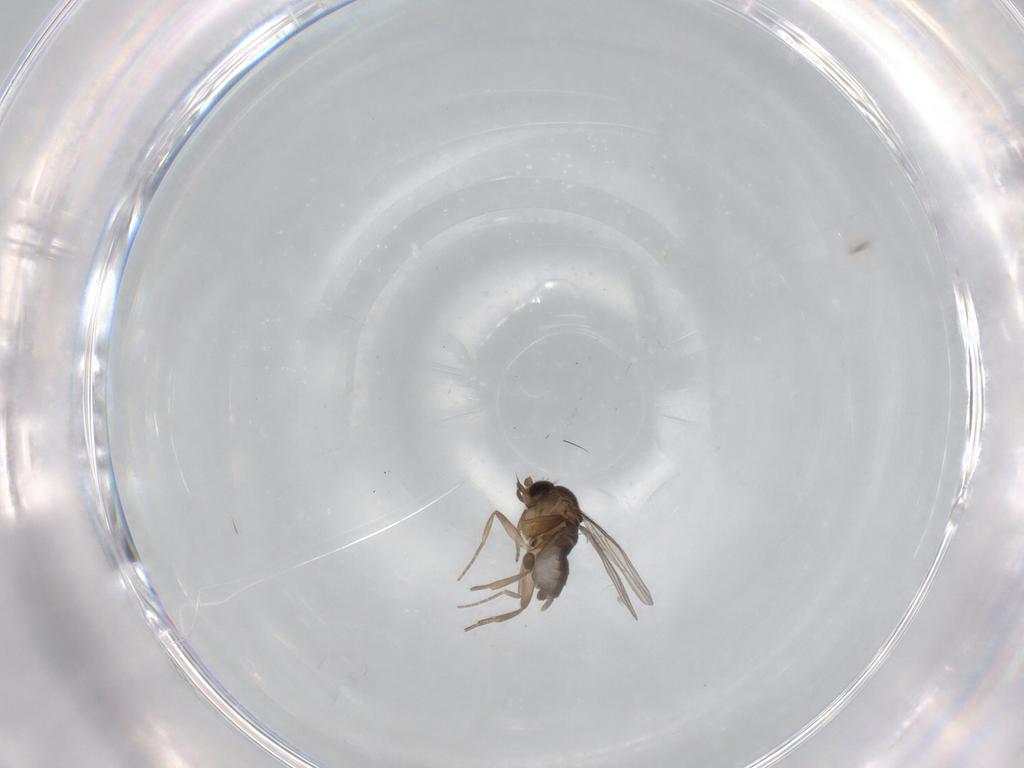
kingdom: Animalia
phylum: Arthropoda
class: Insecta
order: Diptera
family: Phoridae
